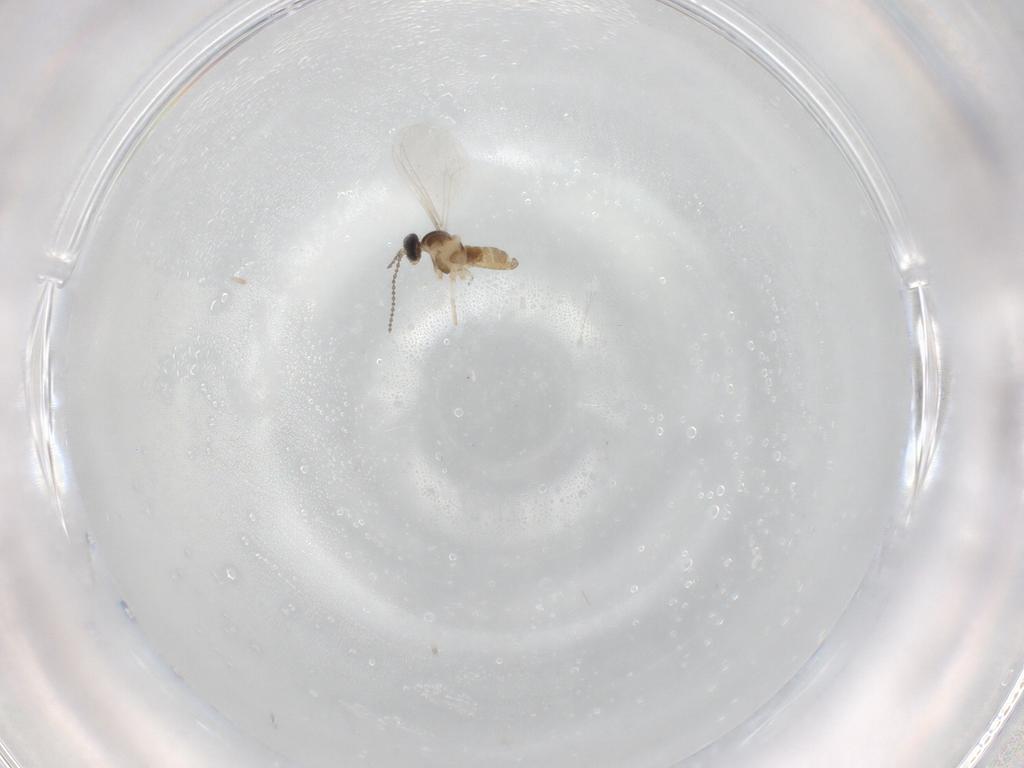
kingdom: Animalia
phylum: Arthropoda
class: Insecta
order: Diptera
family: Cecidomyiidae
